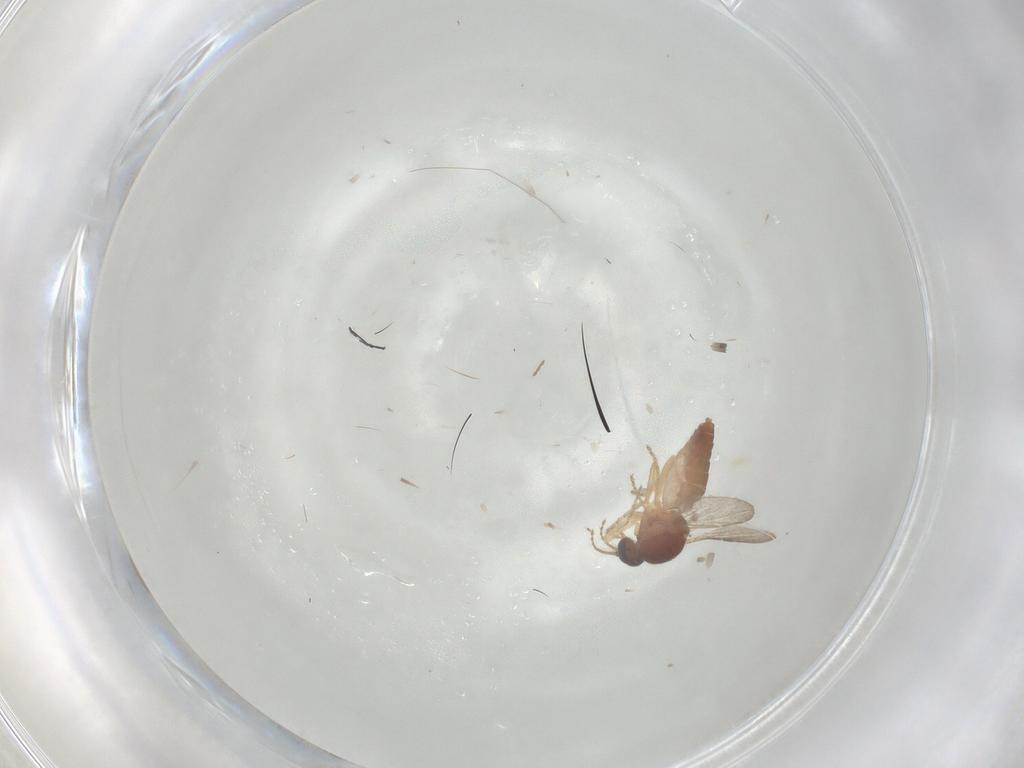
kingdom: Animalia
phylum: Arthropoda
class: Insecta
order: Diptera
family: Ceratopogonidae
